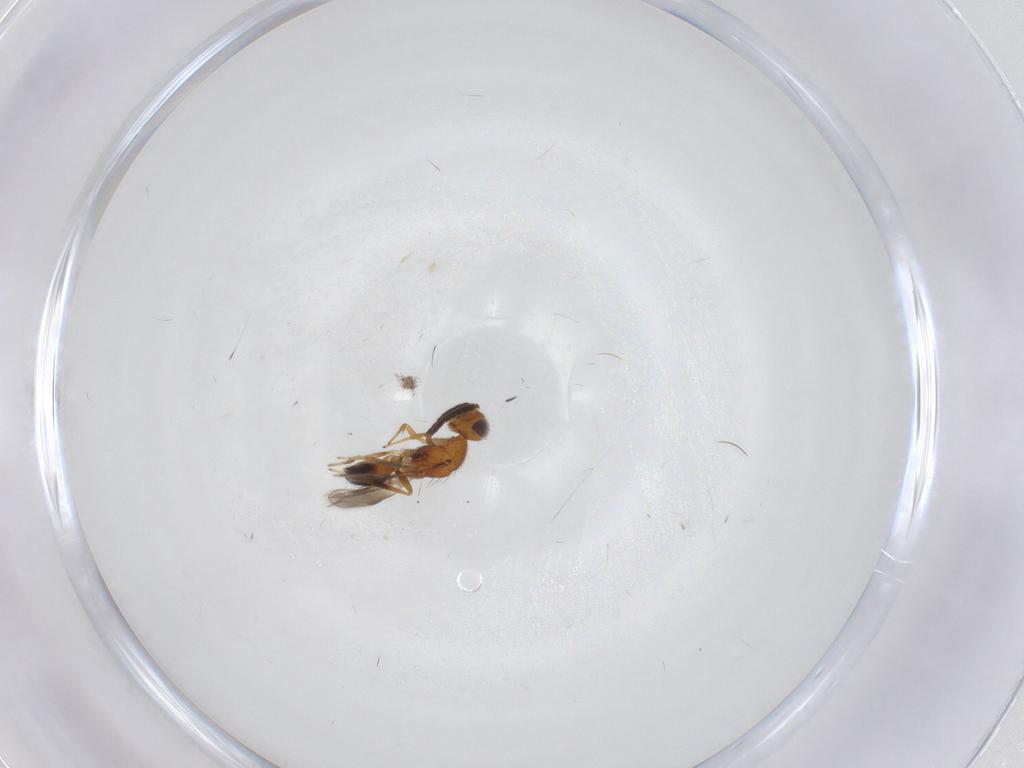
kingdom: Animalia
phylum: Arthropoda
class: Insecta
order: Hymenoptera
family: Pteromalidae
